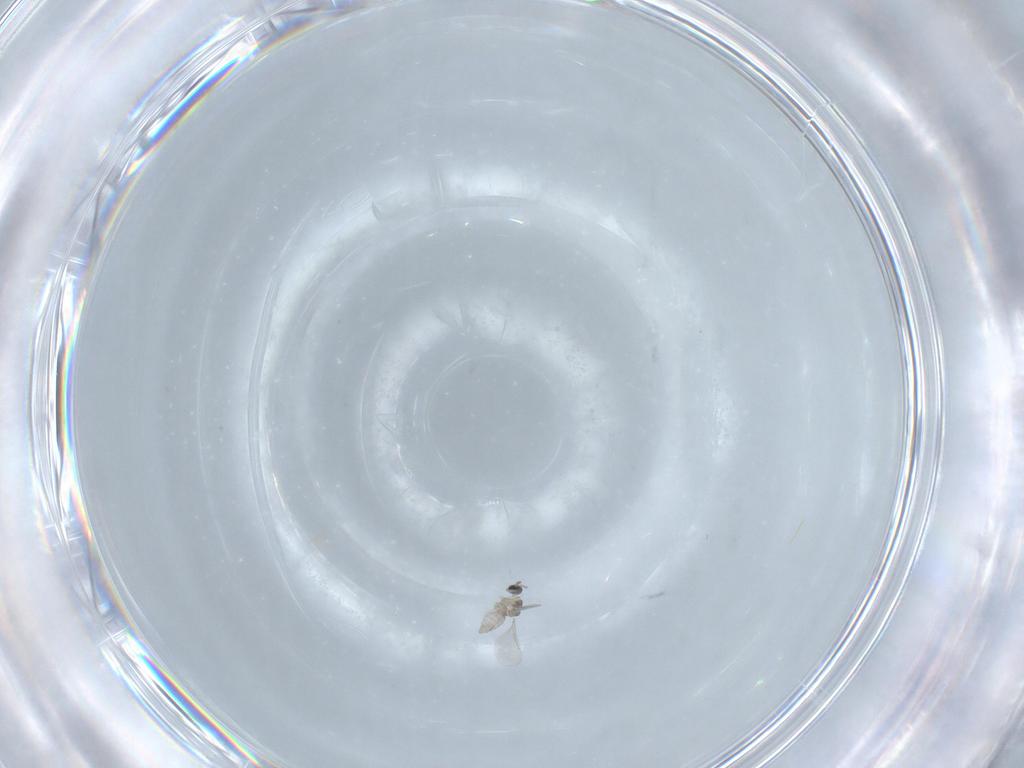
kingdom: Animalia
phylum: Arthropoda
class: Insecta
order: Diptera
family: Cecidomyiidae
